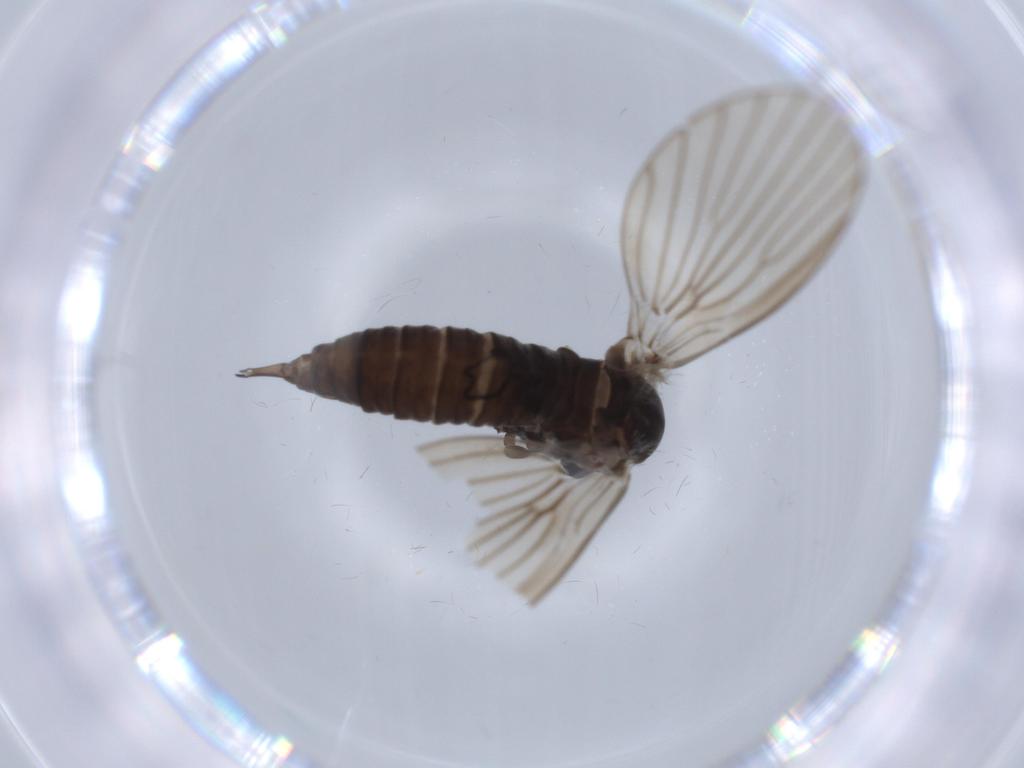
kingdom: Animalia
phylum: Arthropoda
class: Insecta
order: Diptera
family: Psychodidae
